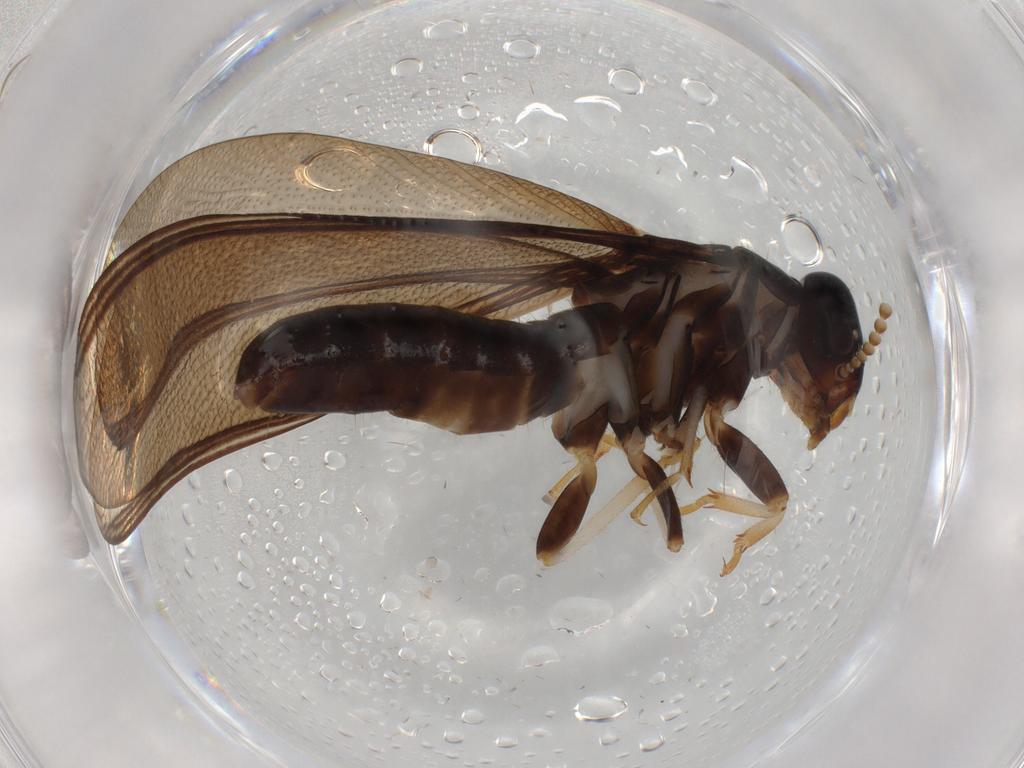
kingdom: Animalia
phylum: Arthropoda
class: Insecta
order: Blattodea
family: Kalotermitidae
